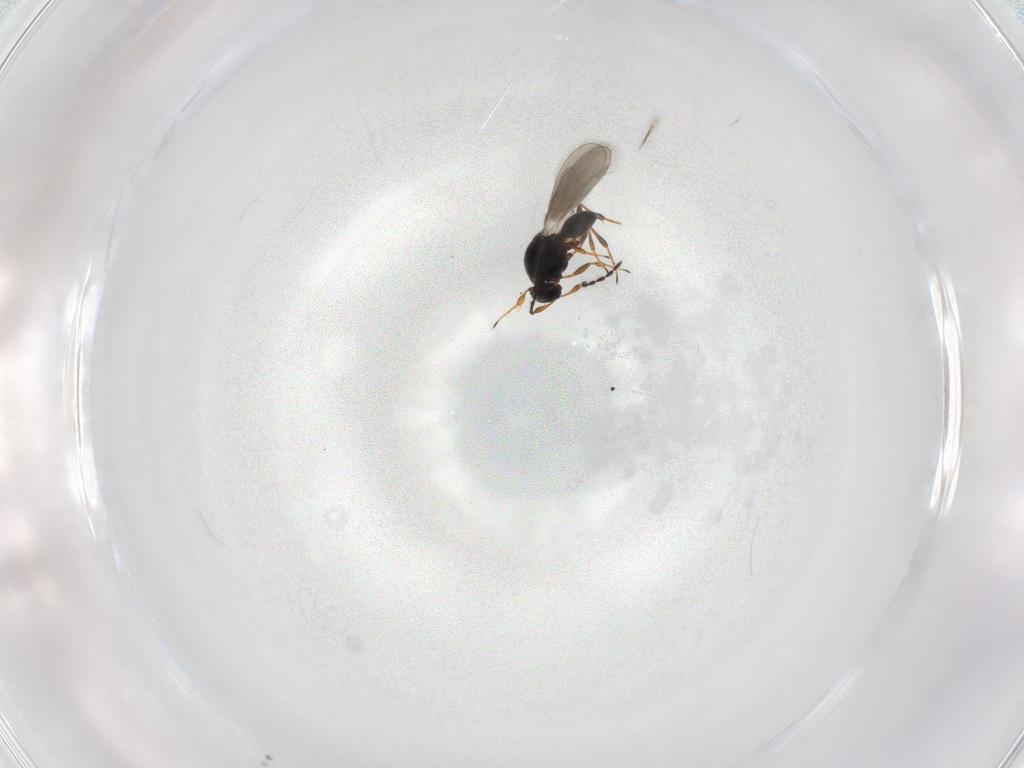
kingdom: Animalia
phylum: Arthropoda
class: Insecta
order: Hymenoptera
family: Platygastridae
